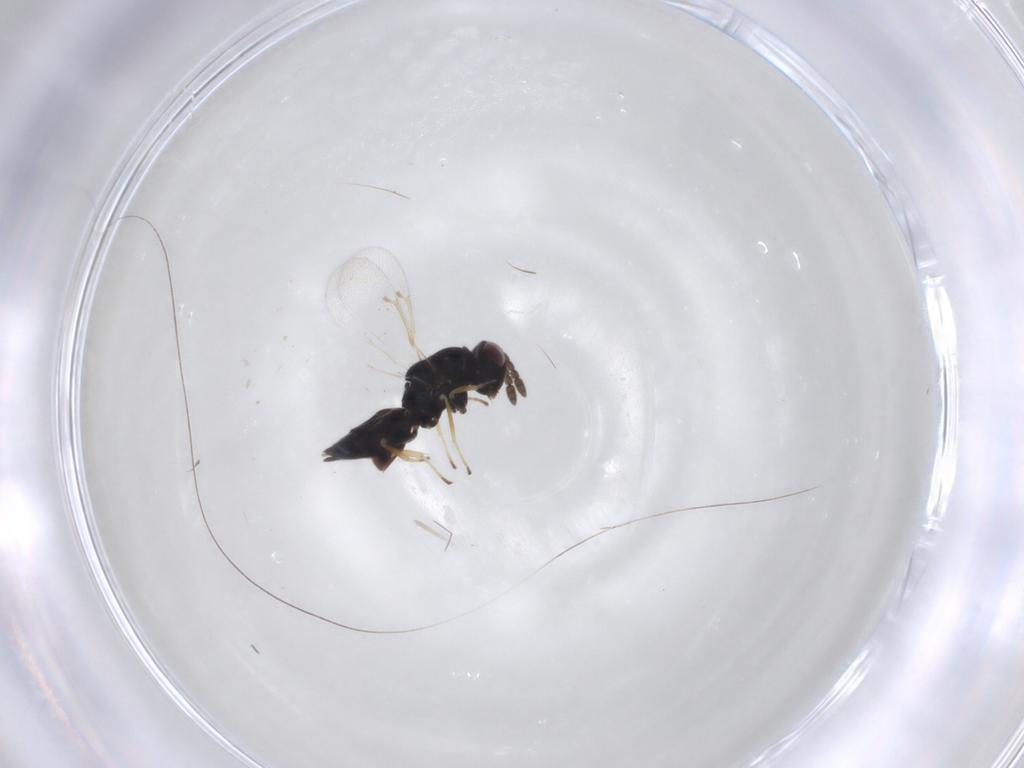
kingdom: Animalia
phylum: Arthropoda
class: Insecta
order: Hymenoptera
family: Eulophidae
